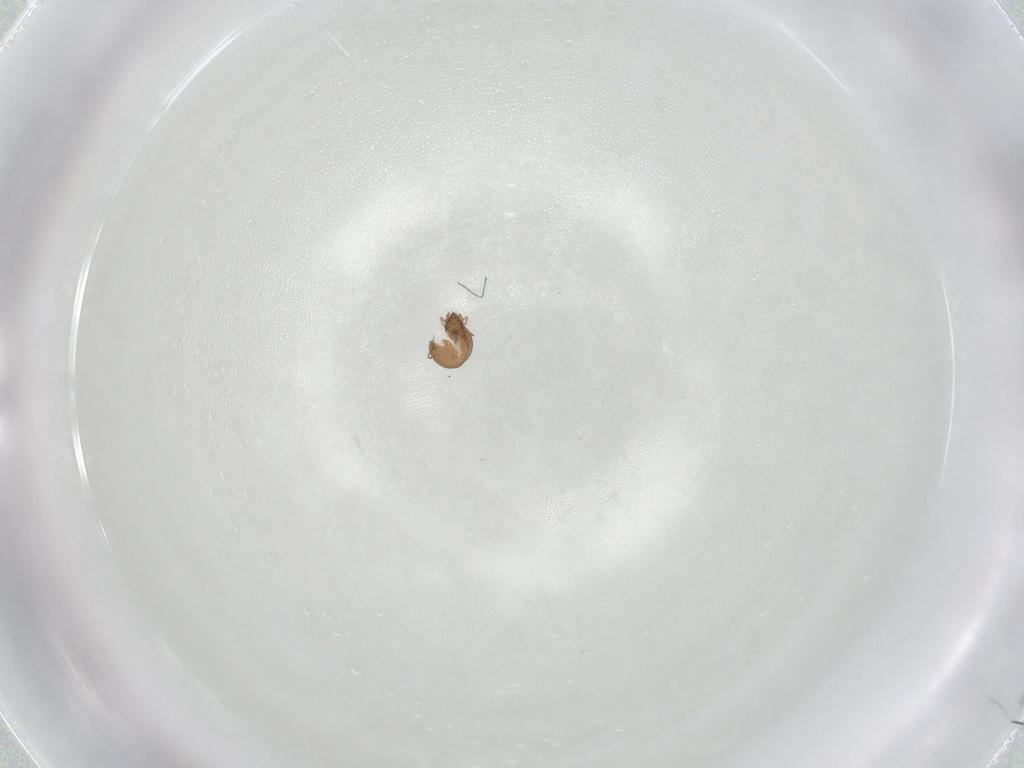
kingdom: Animalia
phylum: Arthropoda
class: Arachnida
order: Sarcoptiformes
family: Oribatulidae
